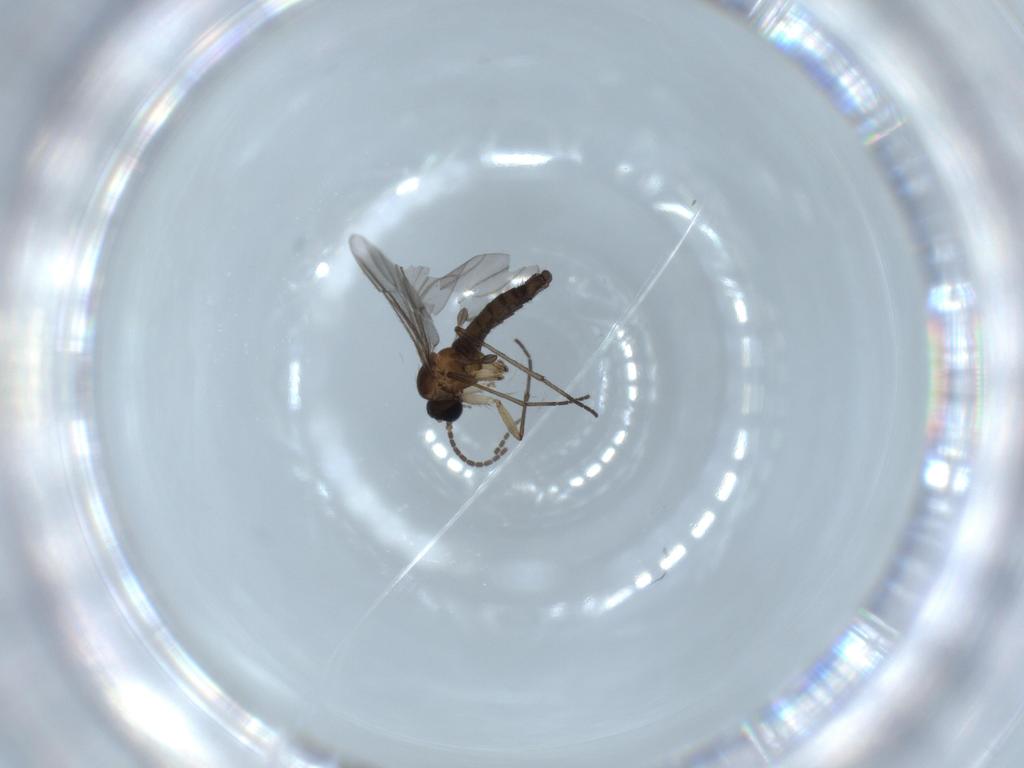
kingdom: Animalia
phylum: Arthropoda
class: Insecta
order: Diptera
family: Sciaridae
